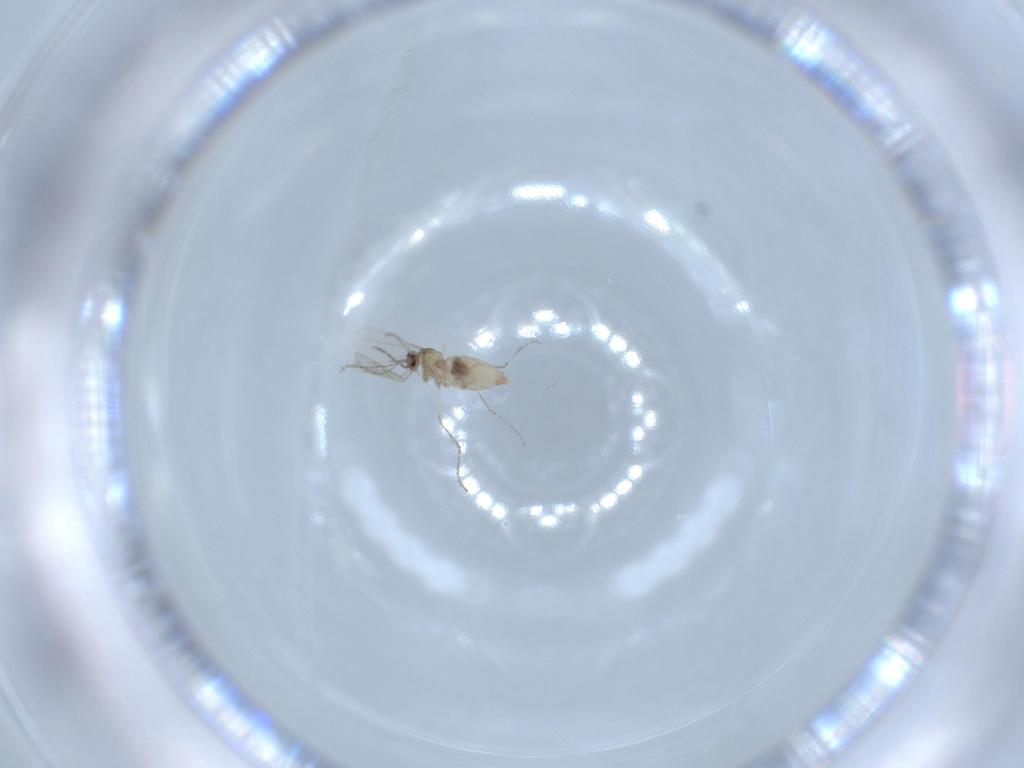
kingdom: Animalia
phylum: Arthropoda
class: Insecta
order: Diptera
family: Cecidomyiidae
